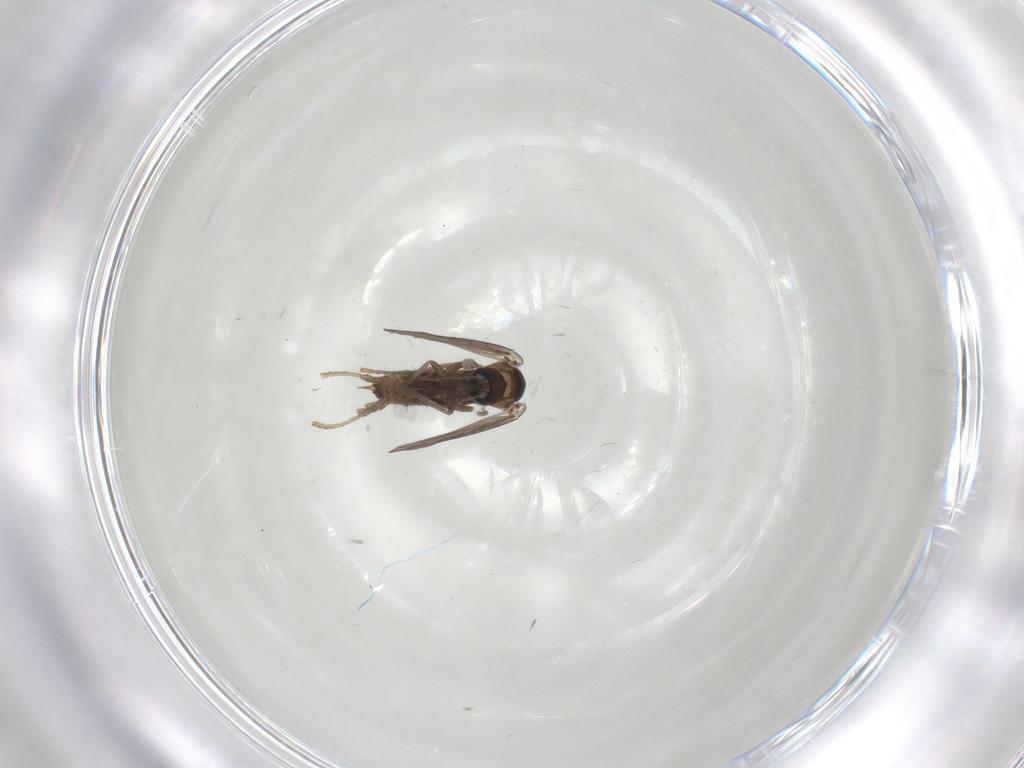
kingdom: Animalia
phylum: Arthropoda
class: Insecta
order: Diptera
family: Psychodidae
